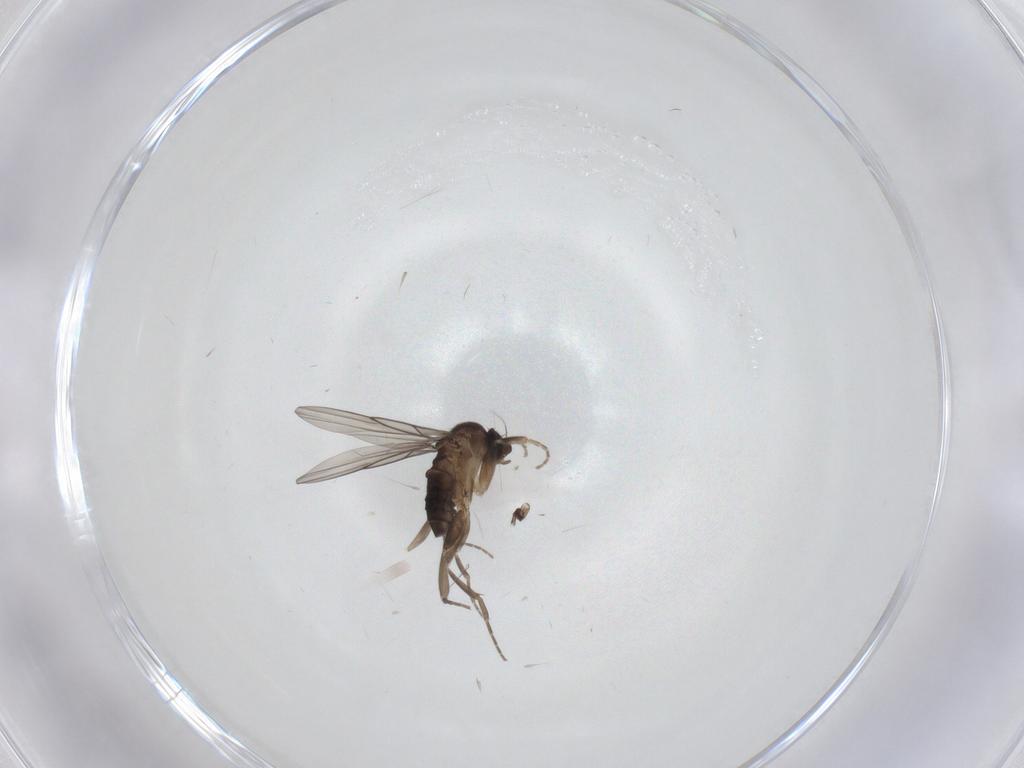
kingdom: Animalia
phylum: Arthropoda
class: Insecta
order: Diptera
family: Phoridae
